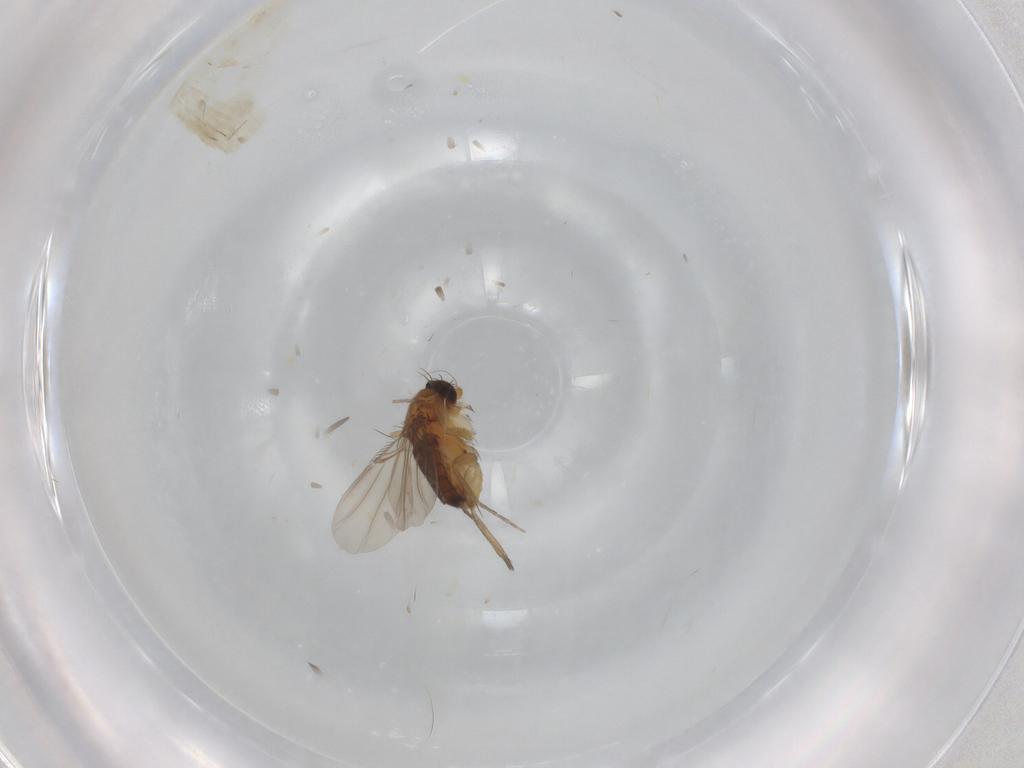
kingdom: Animalia
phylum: Arthropoda
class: Insecta
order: Diptera
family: Phoridae
